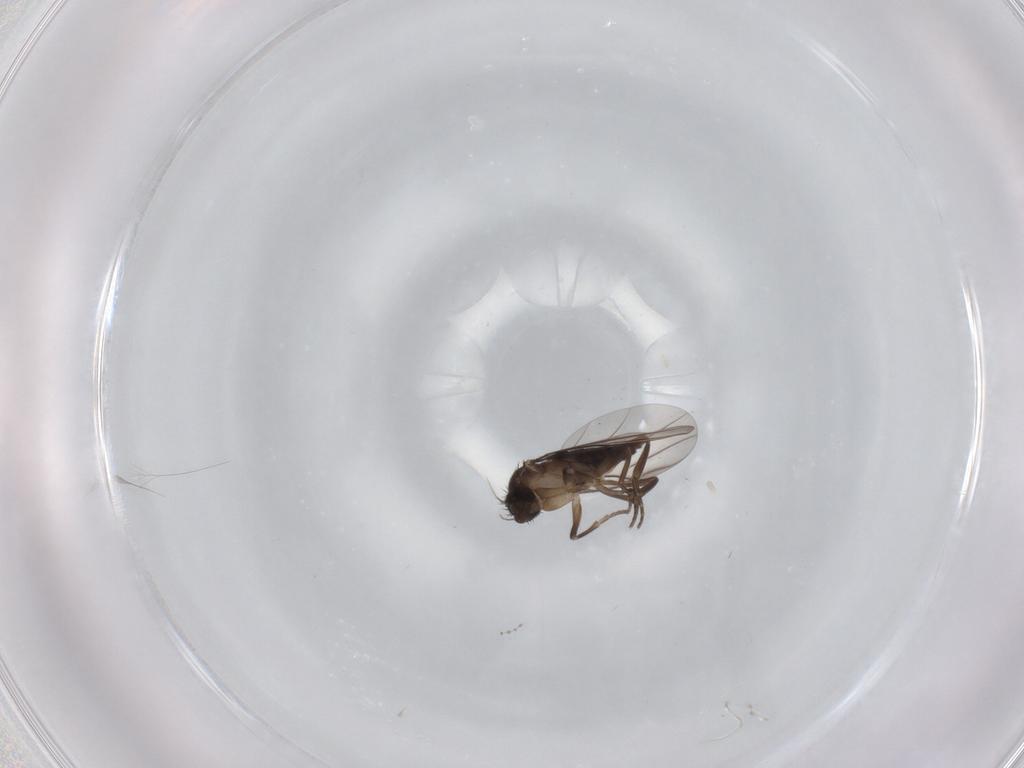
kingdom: Animalia
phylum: Arthropoda
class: Insecta
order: Diptera
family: Cecidomyiidae
